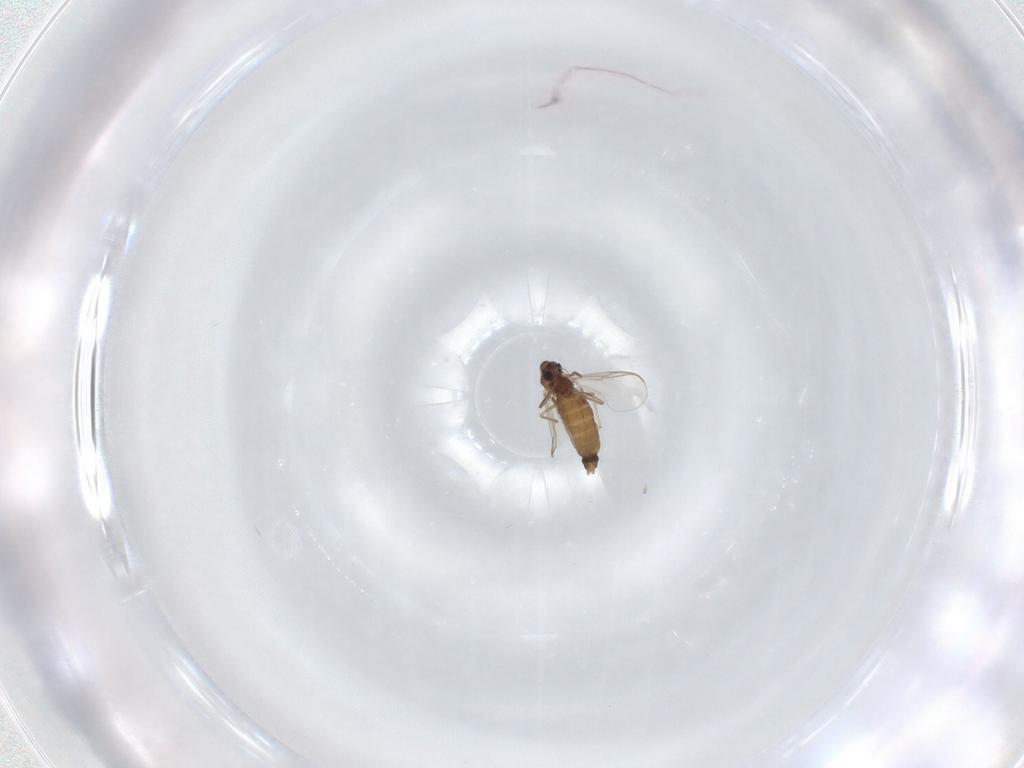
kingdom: Animalia
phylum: Arthropoda
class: Insecta
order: Diptera
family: Chironomidae
